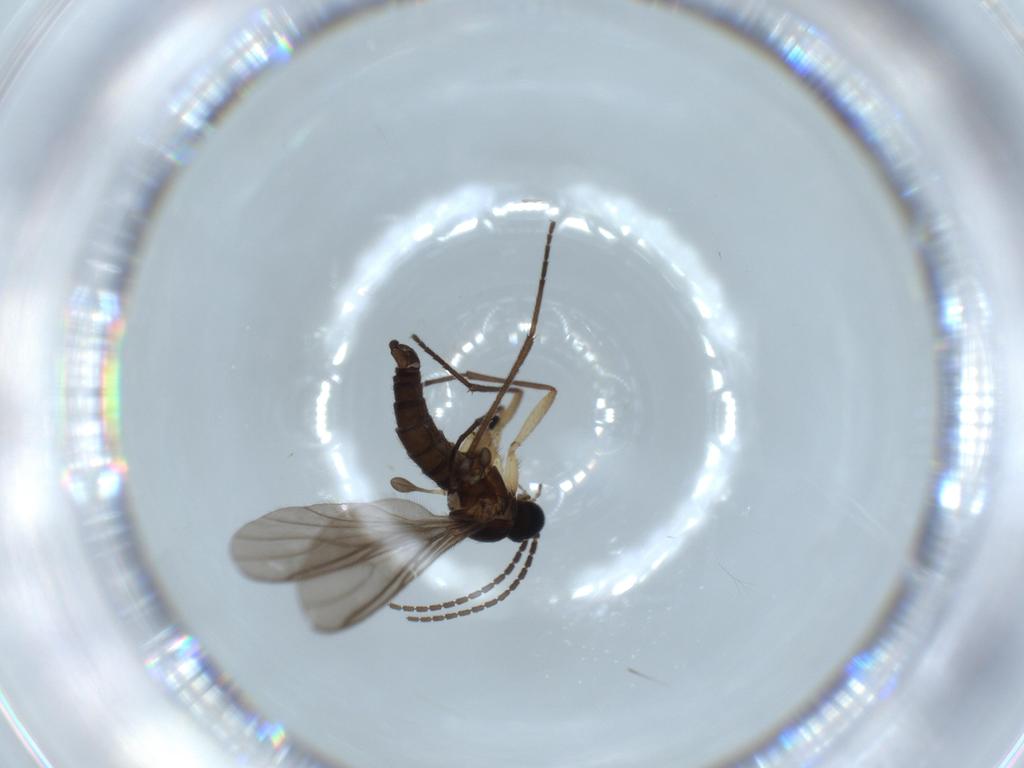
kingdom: Animalia
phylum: Arthropoda
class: Insecta
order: Diptera
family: Sciaridae
